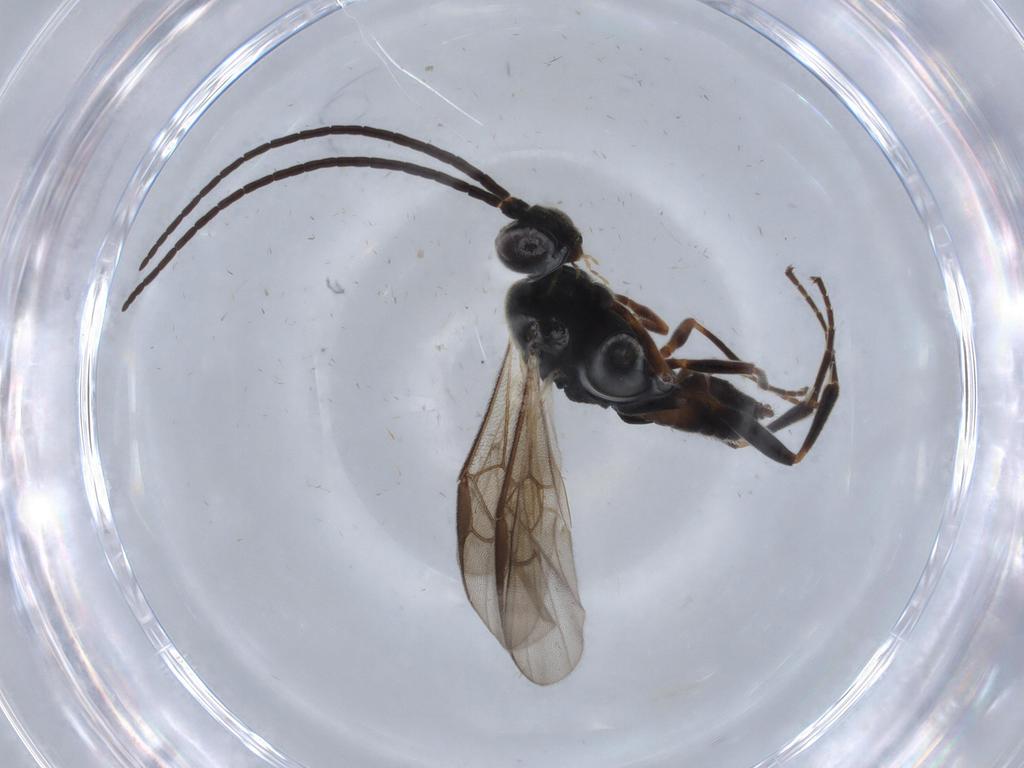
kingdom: Animalia
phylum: Arthropoda
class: Insecta
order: Hymenoptera
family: Braconidae
